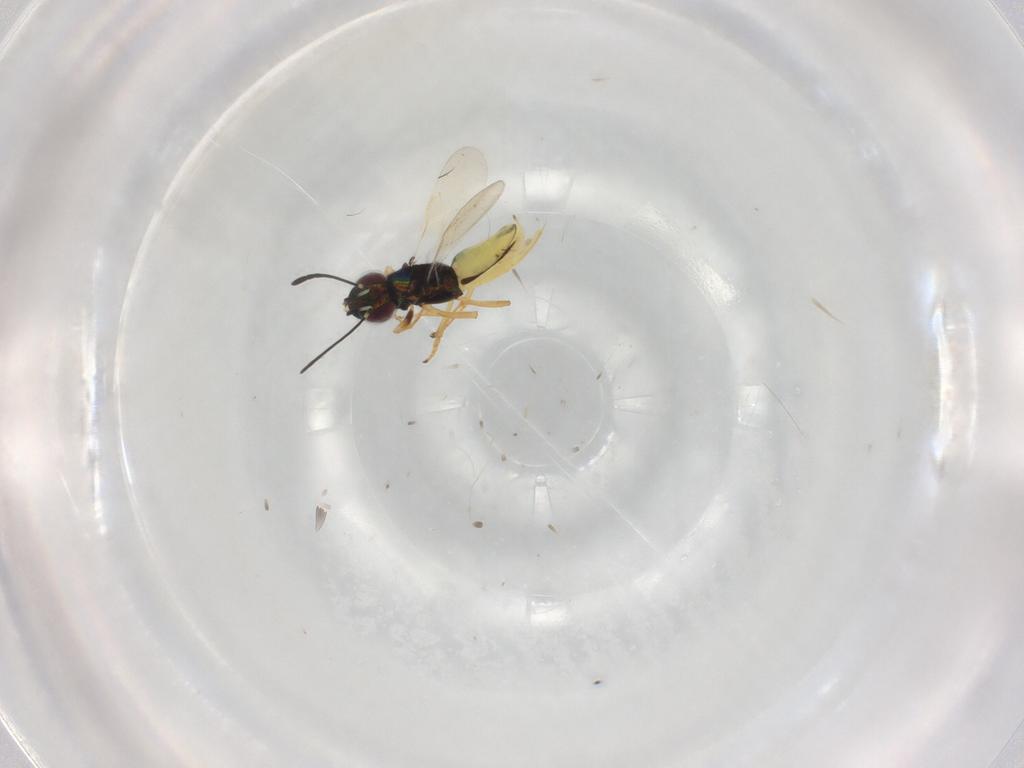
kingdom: Animalia
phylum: Arthropoda
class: Insecta
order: Hymenoptera
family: Encyrtidae
